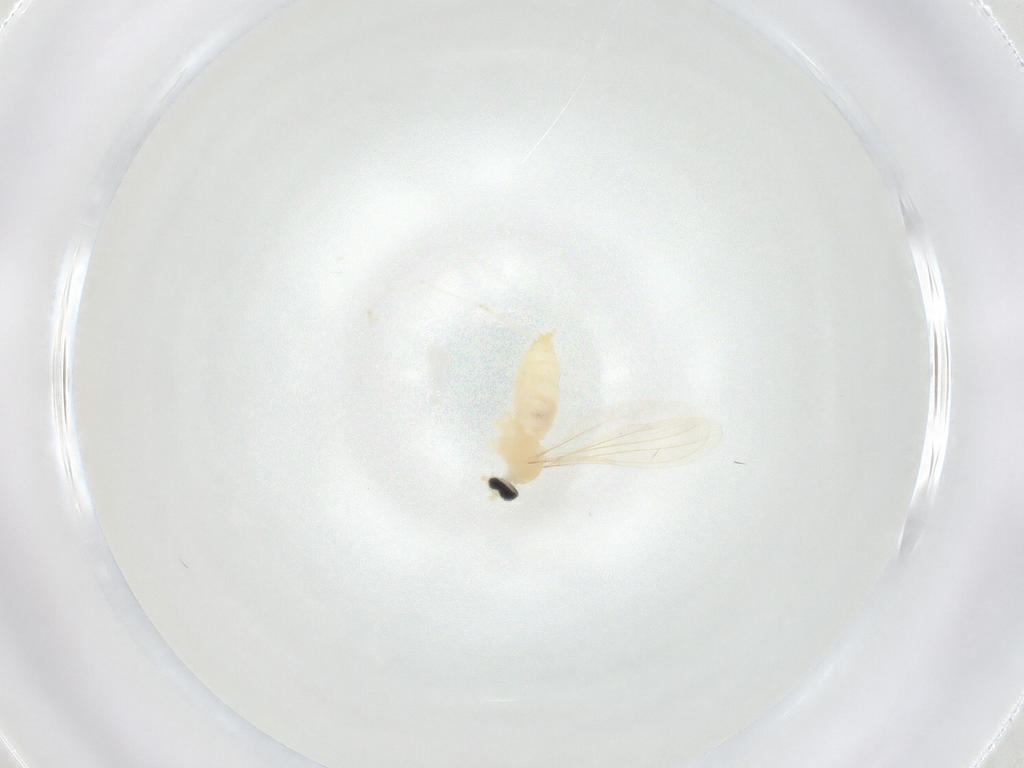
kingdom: Animalia
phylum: Arthropoda
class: Insecta
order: Diptera
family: Cecidomyiidae
